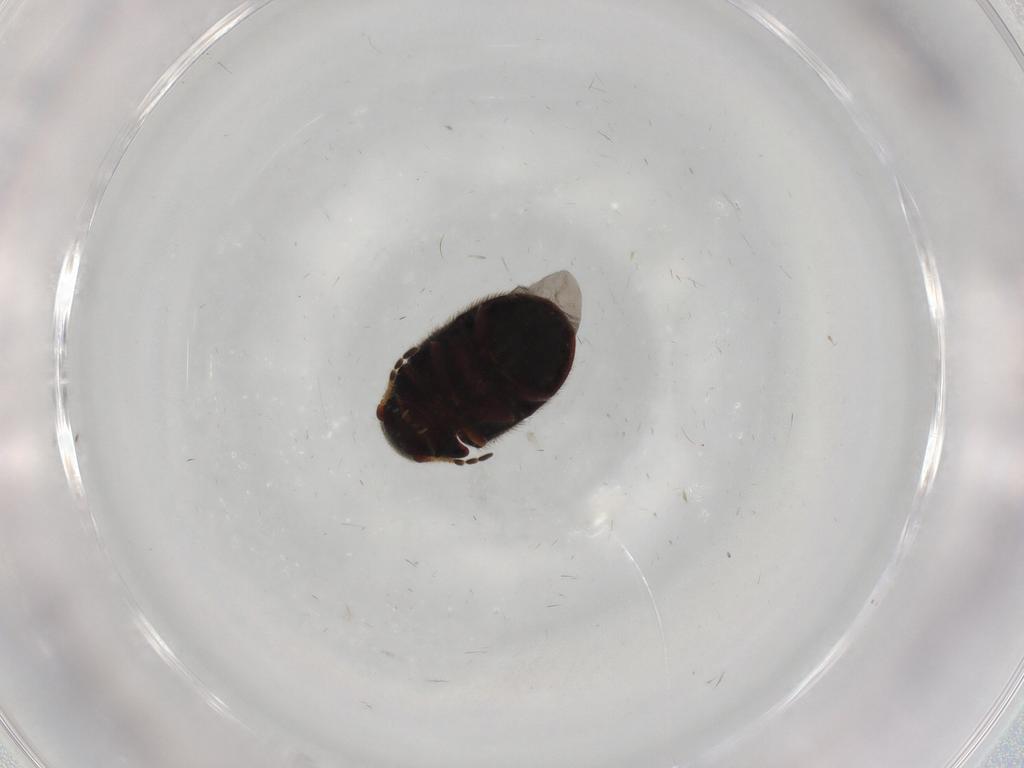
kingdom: Animalia
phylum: Arthropoda
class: Insecta
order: Coleoptera
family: Ptinidae
